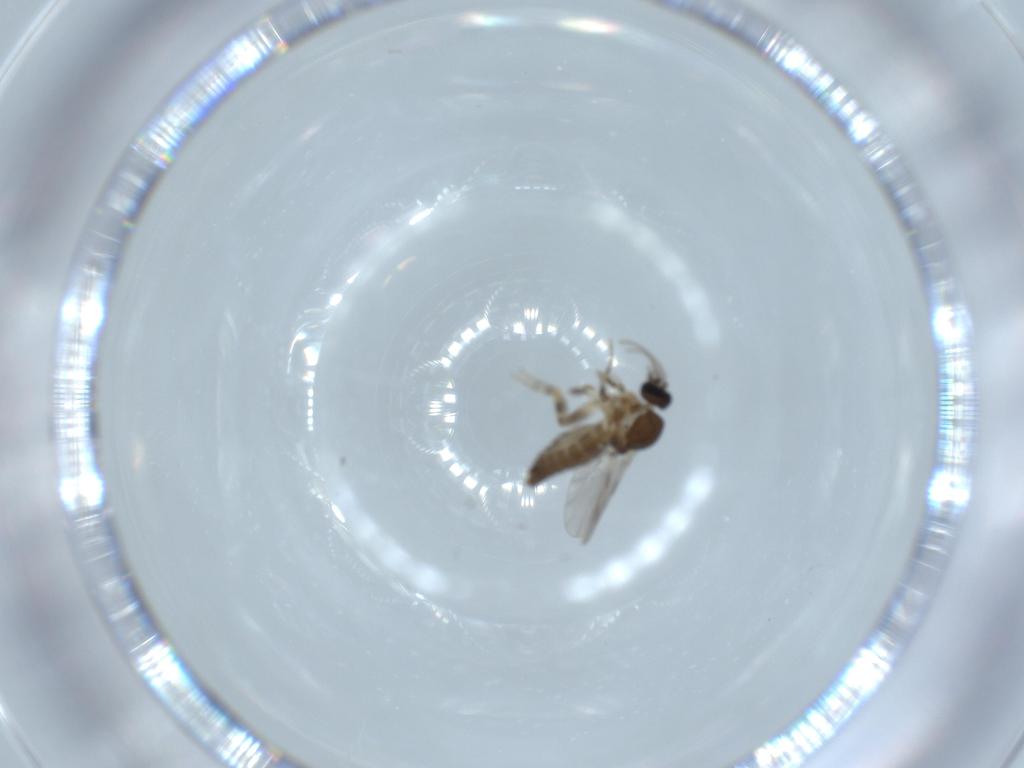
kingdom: Animalia
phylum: Arthropoda
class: Insecta
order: Diptera
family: Ceratopogonidae
